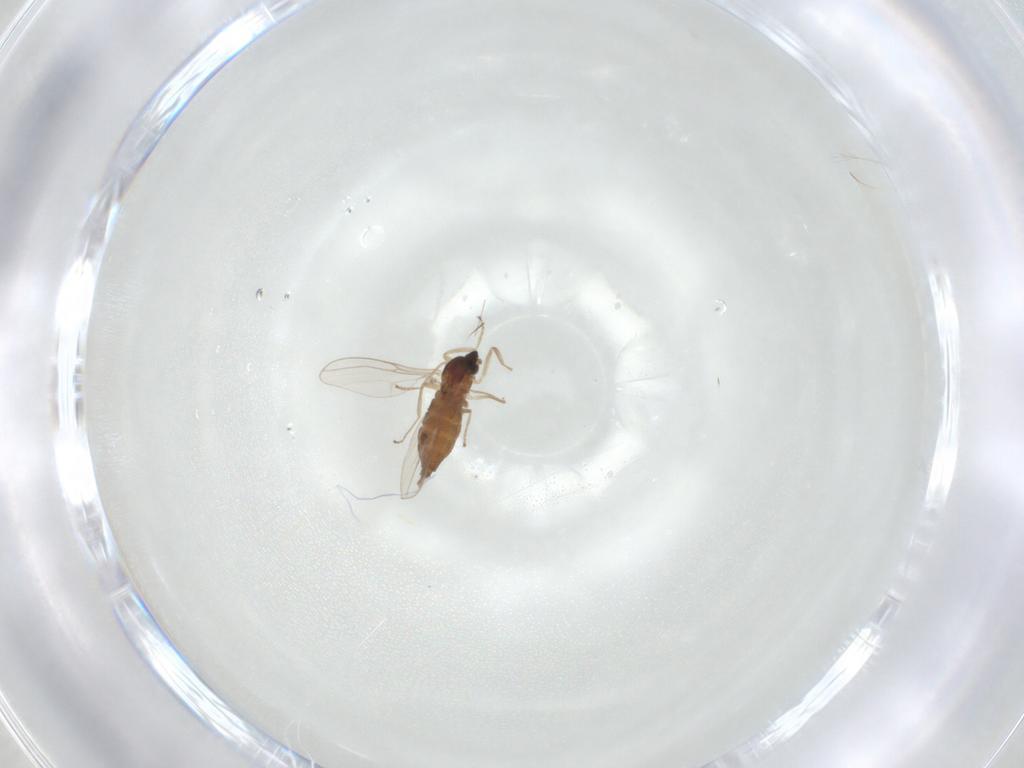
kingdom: Animalia
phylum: Arthropoda
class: Insecta
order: Diptera
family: Cecidomyiidae
